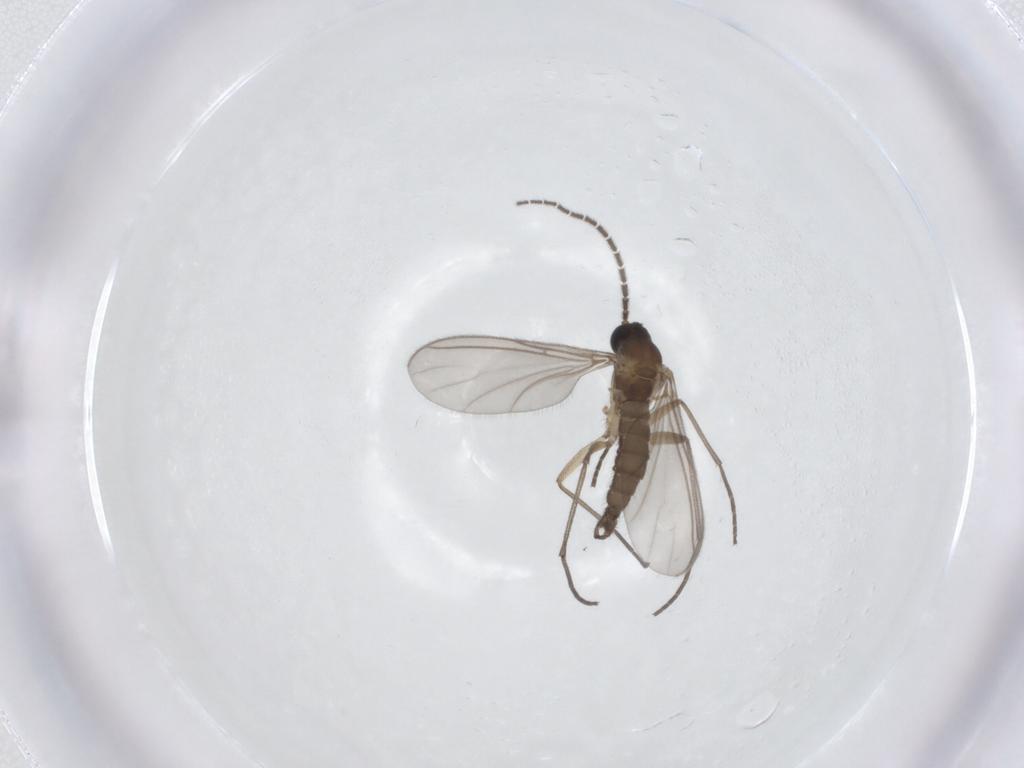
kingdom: Animalia
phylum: Arthropoda
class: Insecta
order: Diptera
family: Sciaridae
